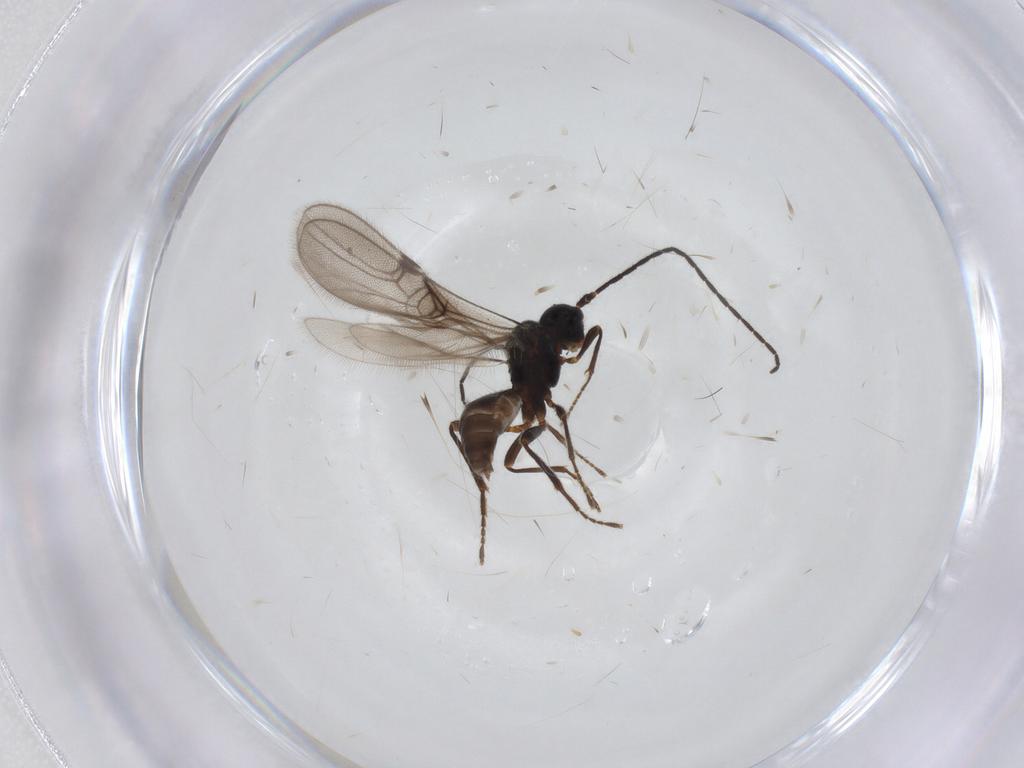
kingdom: Animalia
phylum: Arthropoda
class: Insecta
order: Hymenoptera
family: Braconidae
